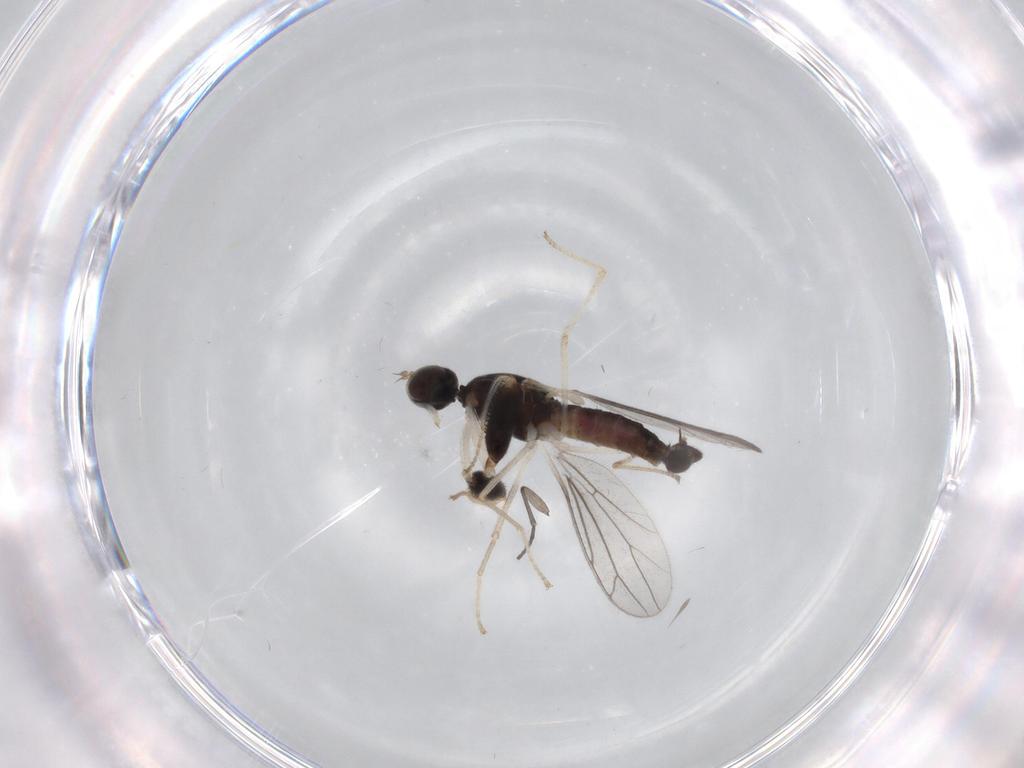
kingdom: Animalia
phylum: Arthropoda
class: Insecta
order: Diptera
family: Empididae
